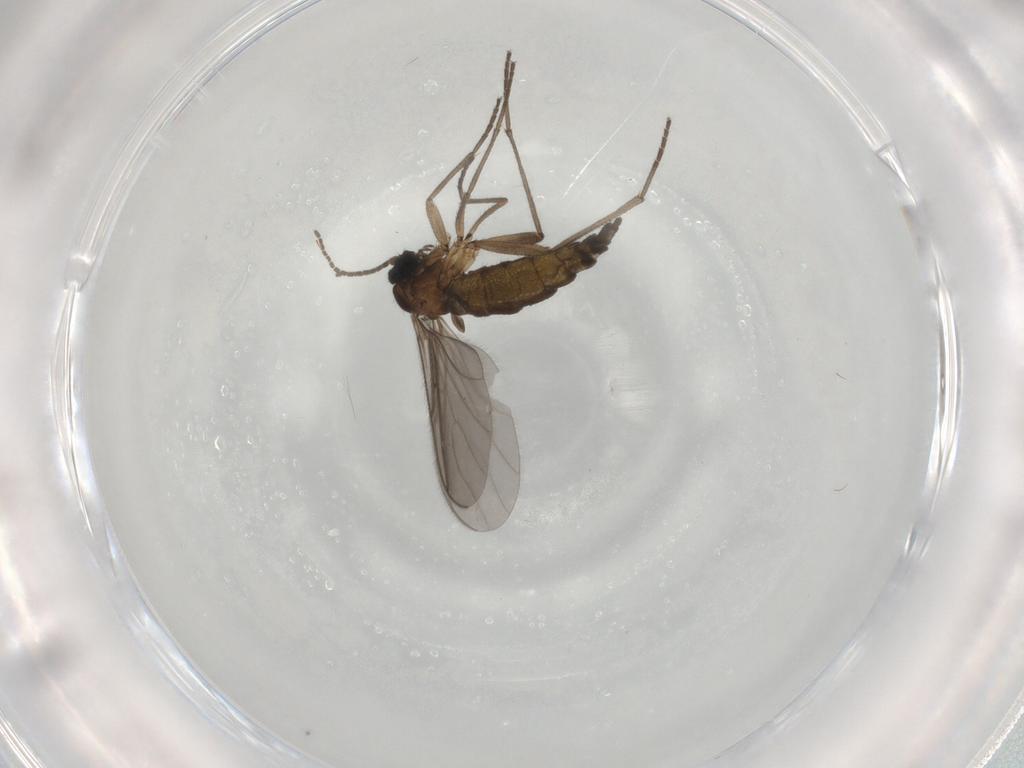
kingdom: Animalia
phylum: Arthropoda
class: Insecta
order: Diptera
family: Sciaridae
